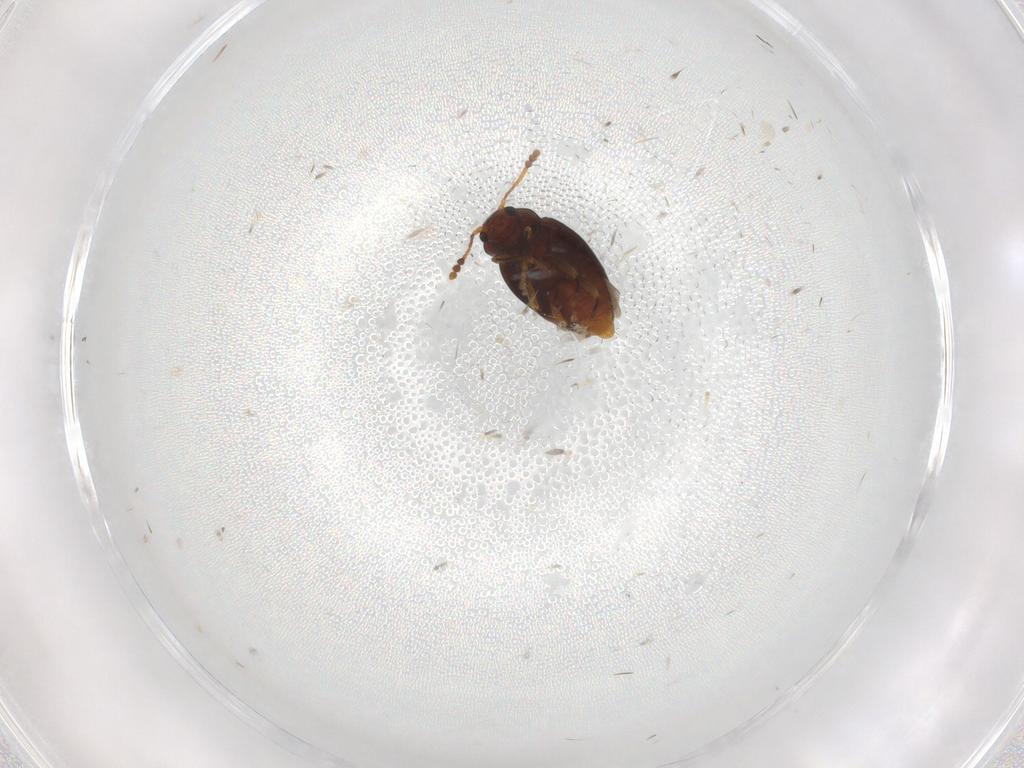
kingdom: Animalia
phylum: Arthropoda
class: Insecta
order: Coleoptera
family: Erotylidae
